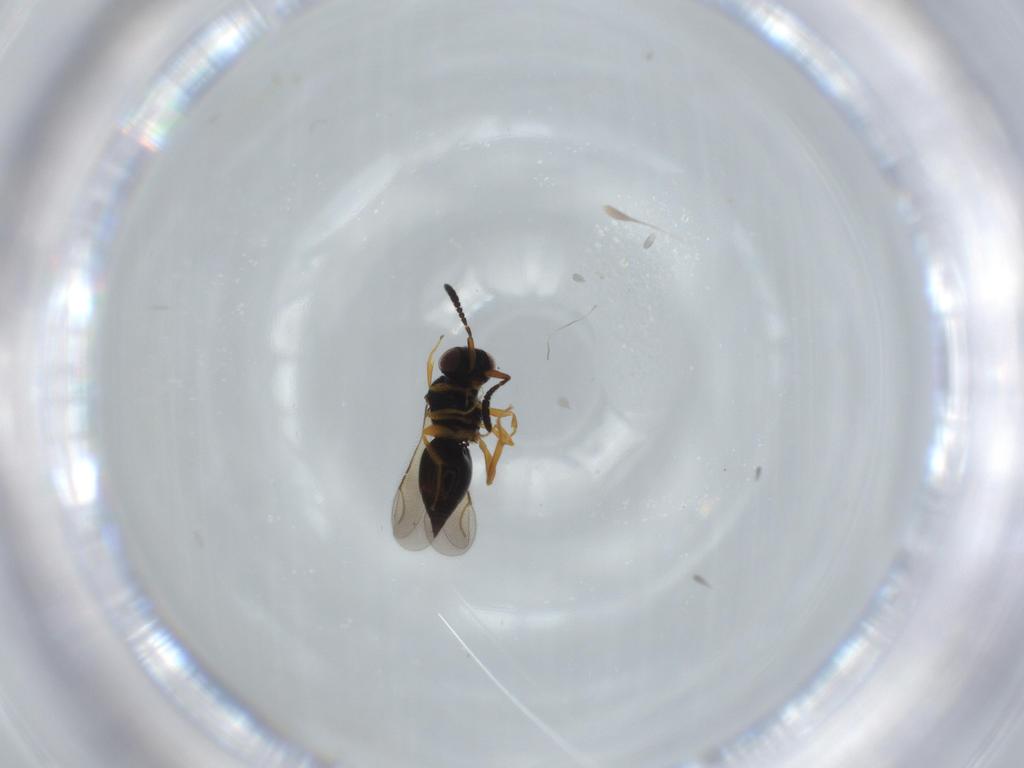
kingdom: Animalia
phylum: Arthropoda
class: Insecta
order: Hymenoptera
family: Ceraphronidae
